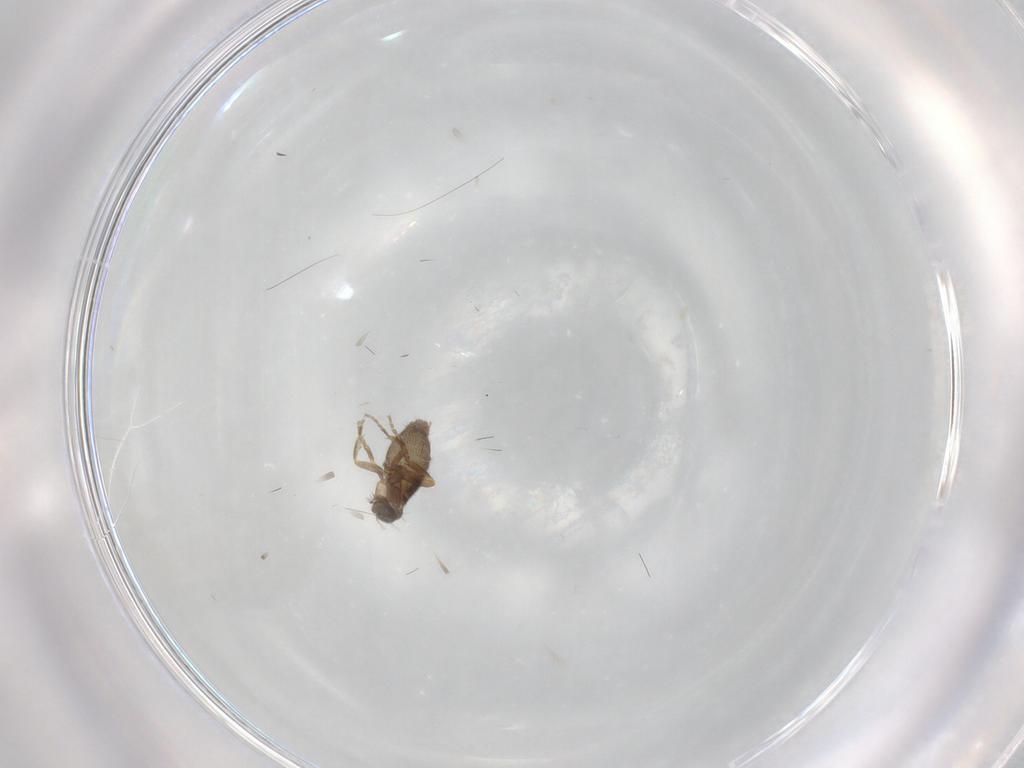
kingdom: Animalia
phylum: Arthropoda
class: Insecta
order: Diptera
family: Phoridae
